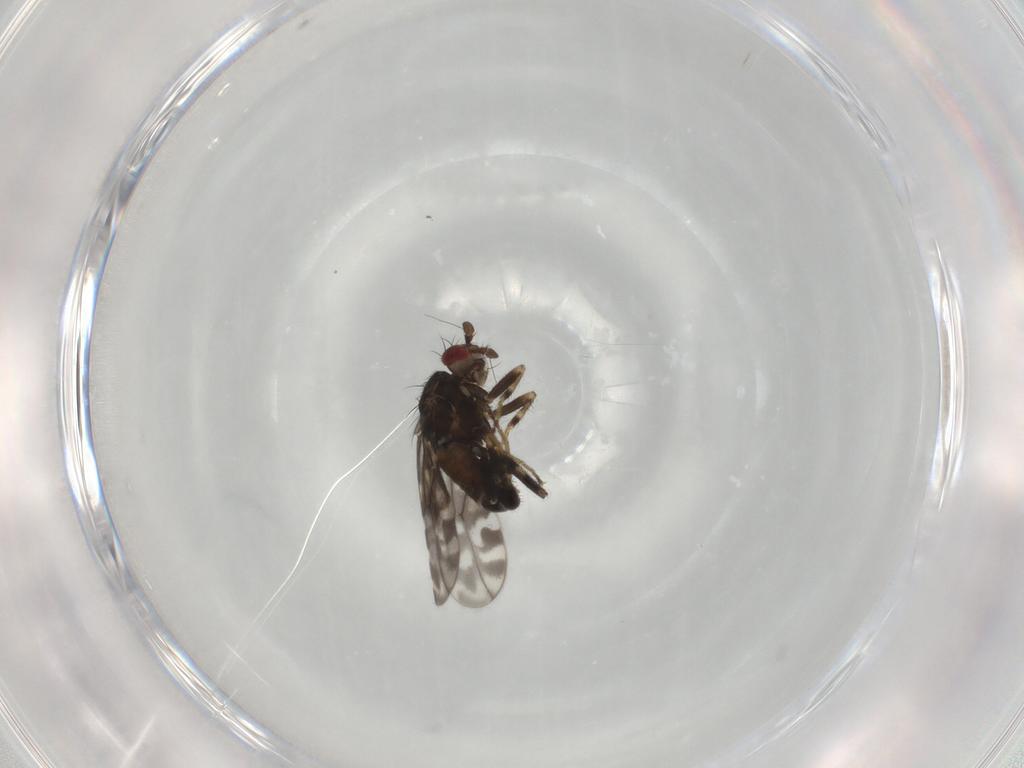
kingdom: Animalia
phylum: Arthropoda
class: Insecta
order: Diptera
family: Sphaeroceridae
